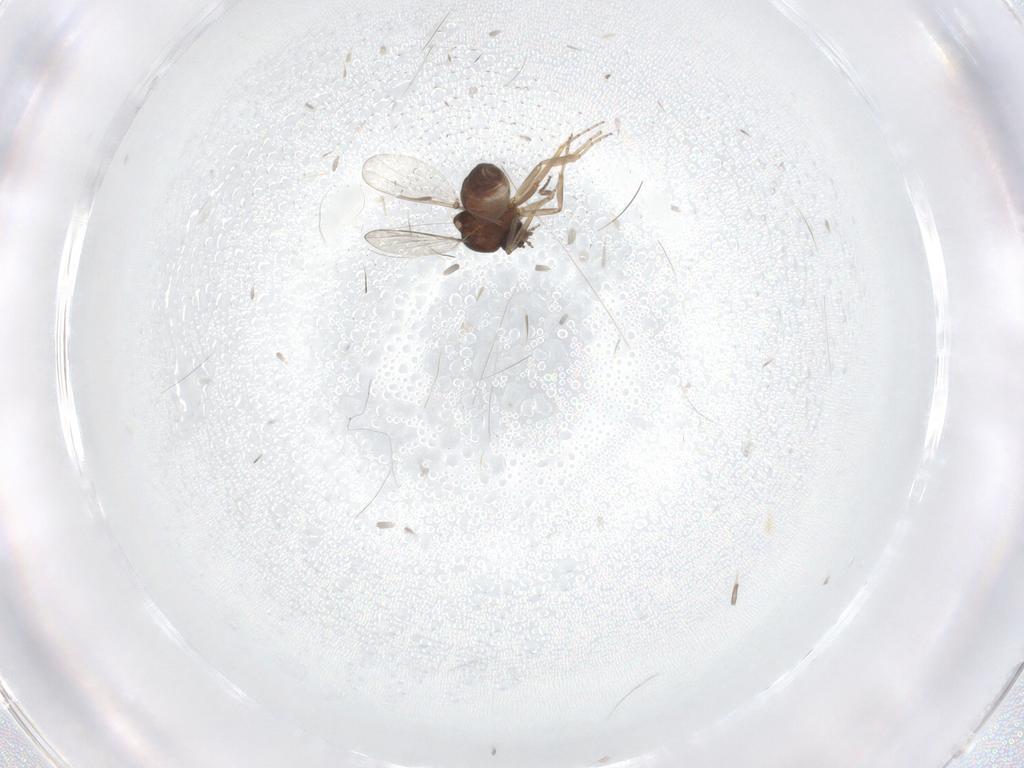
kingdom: Animalia
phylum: Arthropoda
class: Insecta
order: Diptera
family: Ceratopogonidae
